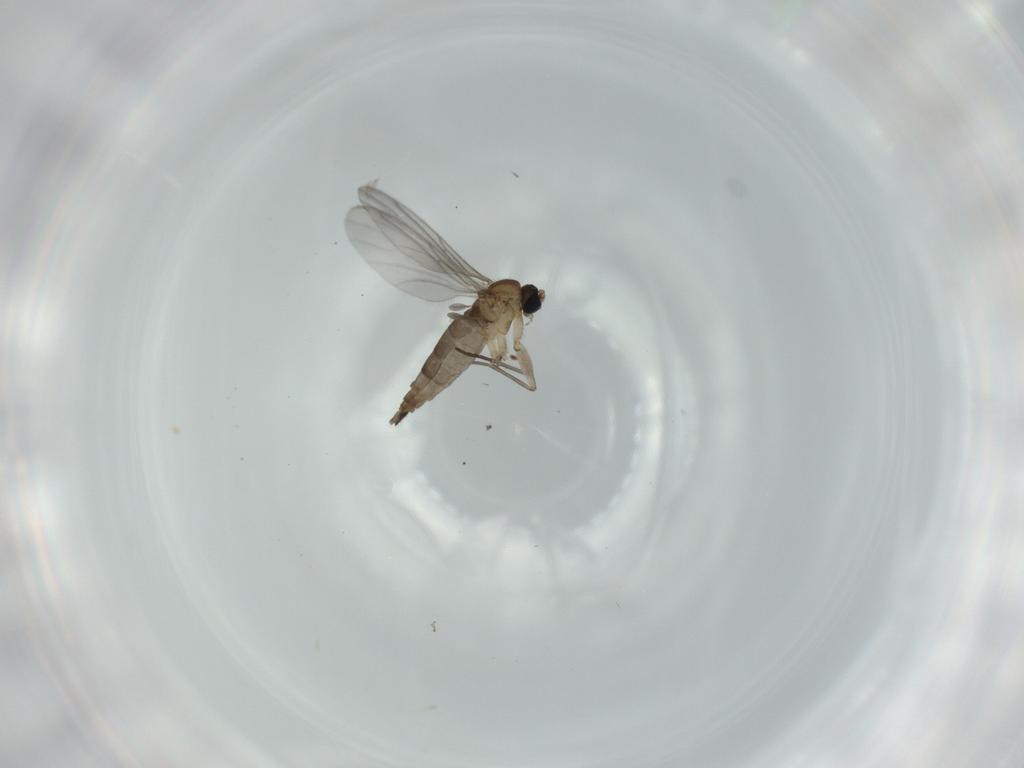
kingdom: Animalia
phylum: Arthropoda
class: Insecta
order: Diptera
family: Sciaridae
